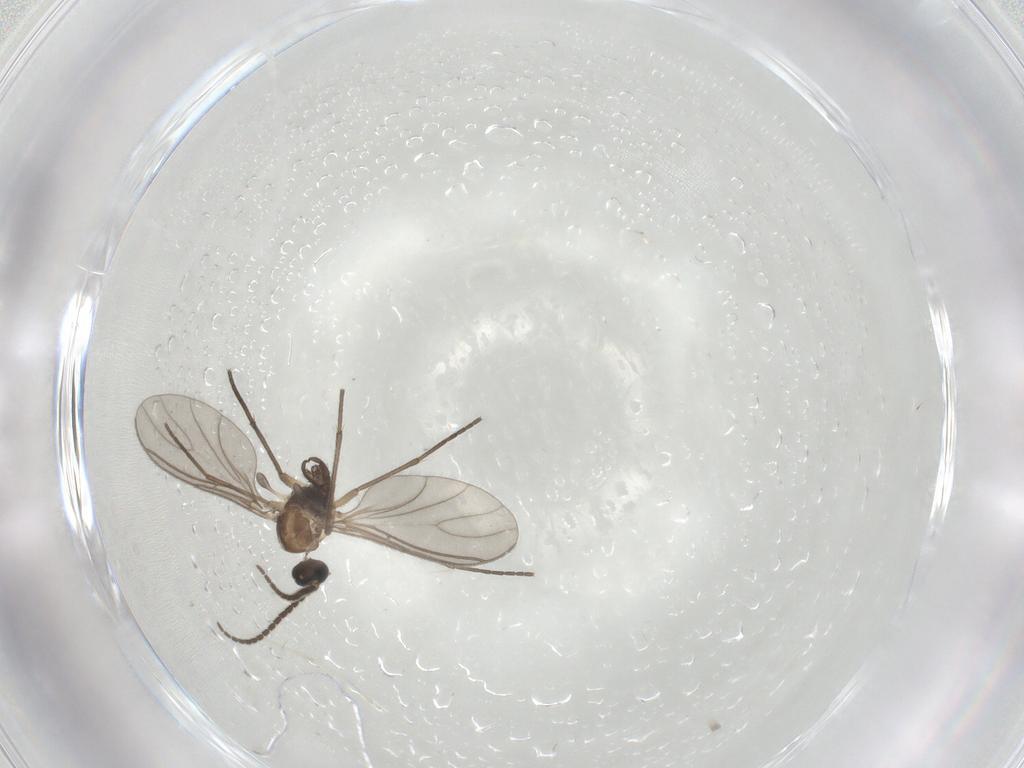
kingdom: Animalia
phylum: Arthropoda
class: Insecta
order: Diptera
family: Sciaridae
